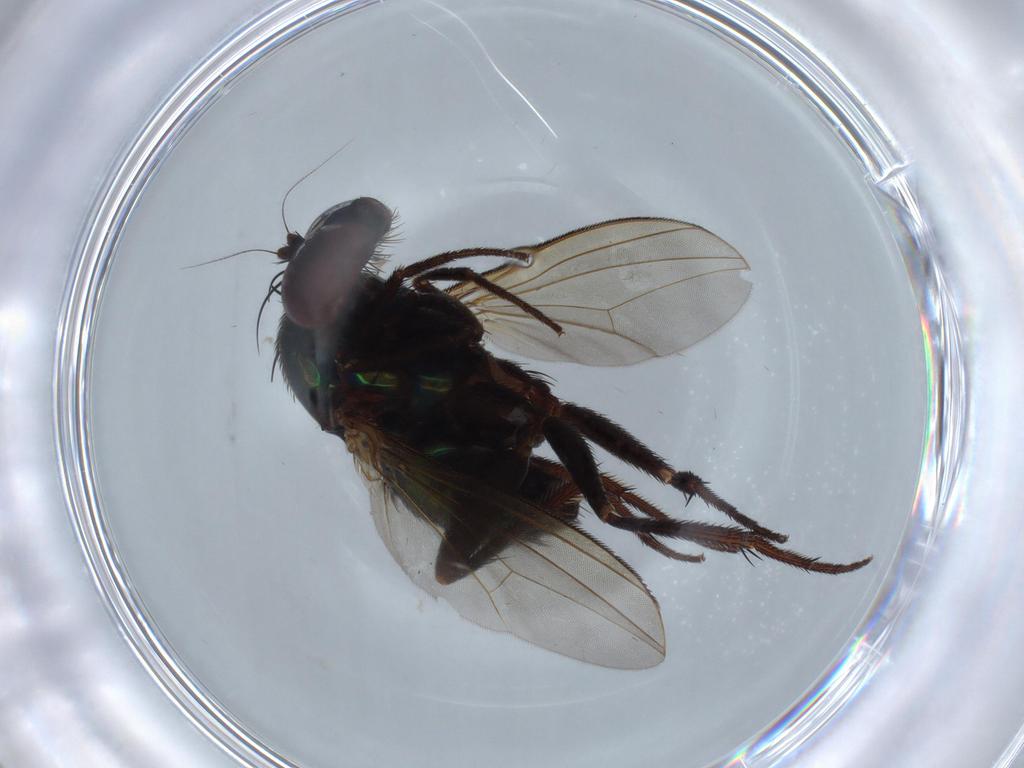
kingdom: Animalia
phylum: Arthropoda
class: Insecta
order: Diptera
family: Dolichopodidae
